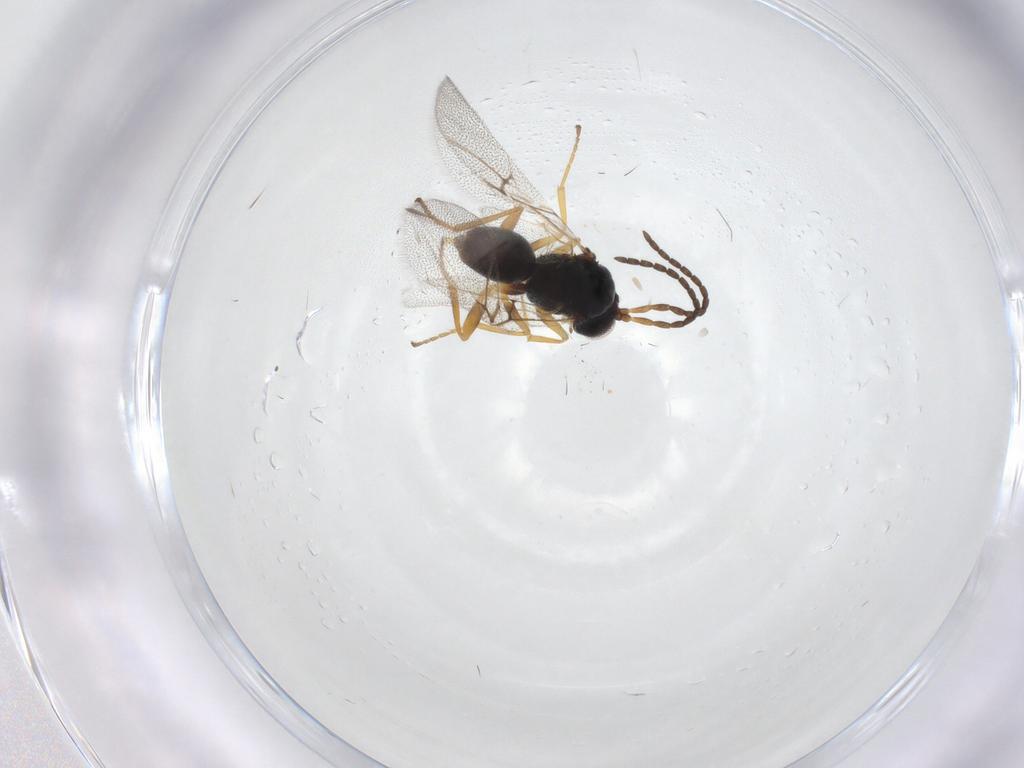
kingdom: Animalia
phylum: Arthropoda
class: Insecta
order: Hymenoptera
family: Cynipidae
